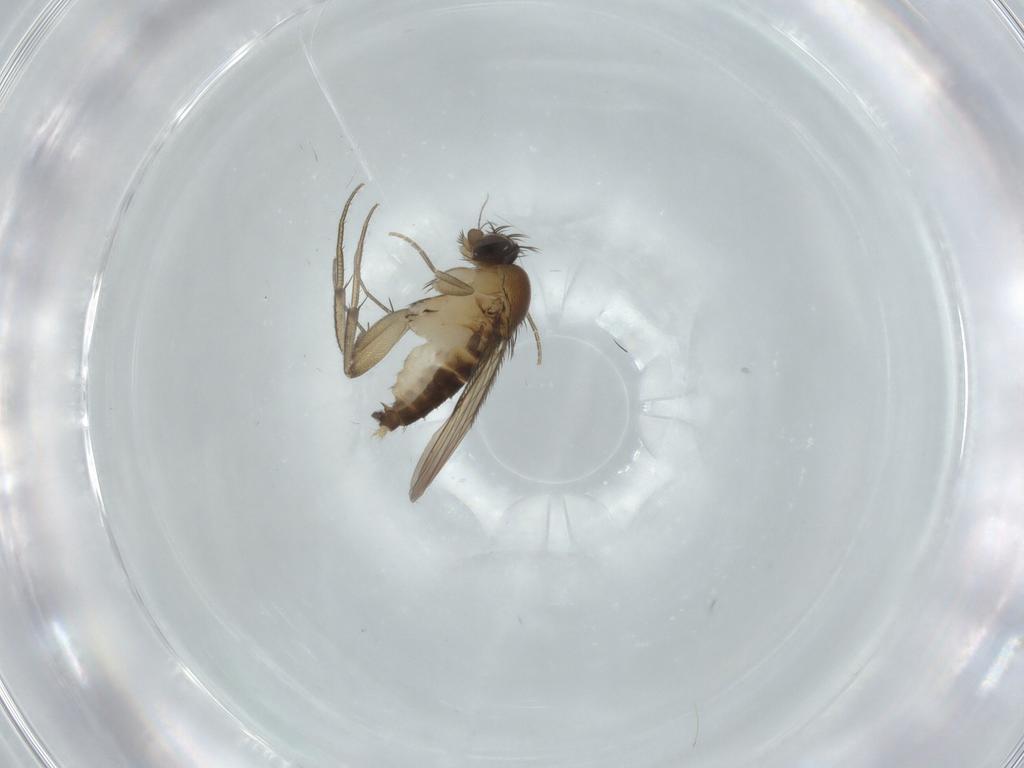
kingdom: Animalia
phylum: Arthropoda
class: Insecta
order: Diptera
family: Phoridae
